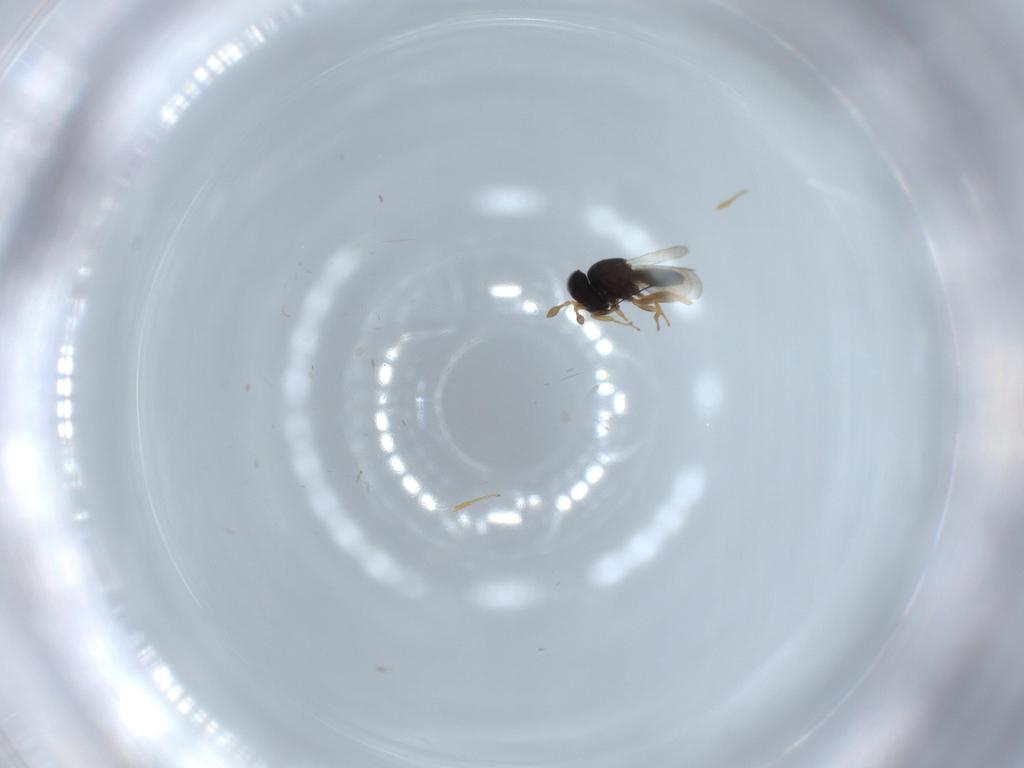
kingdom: Animalia
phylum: Arthropoda
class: Insecta
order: Hymenoptera
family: Scelionidae
